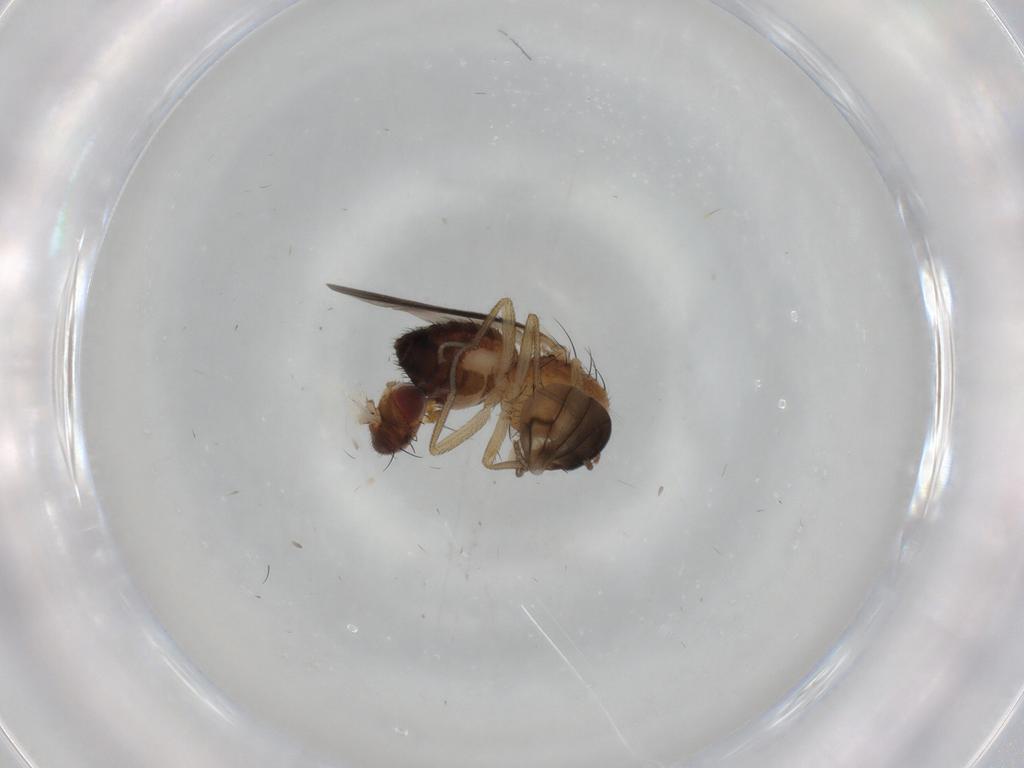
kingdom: Animalia
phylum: Arthropoda
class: Insecta
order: Diptera
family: Heleomyzidae
